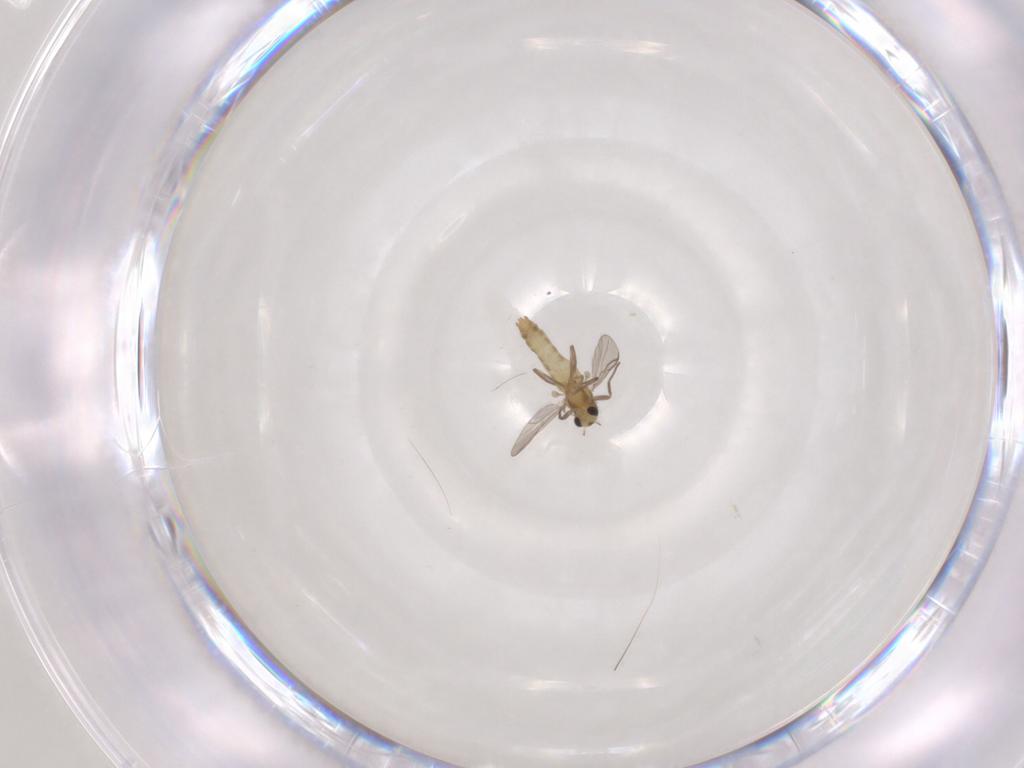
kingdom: Animalia
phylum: Arthropoda
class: Insecta
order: Diptera
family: Chironomidae
